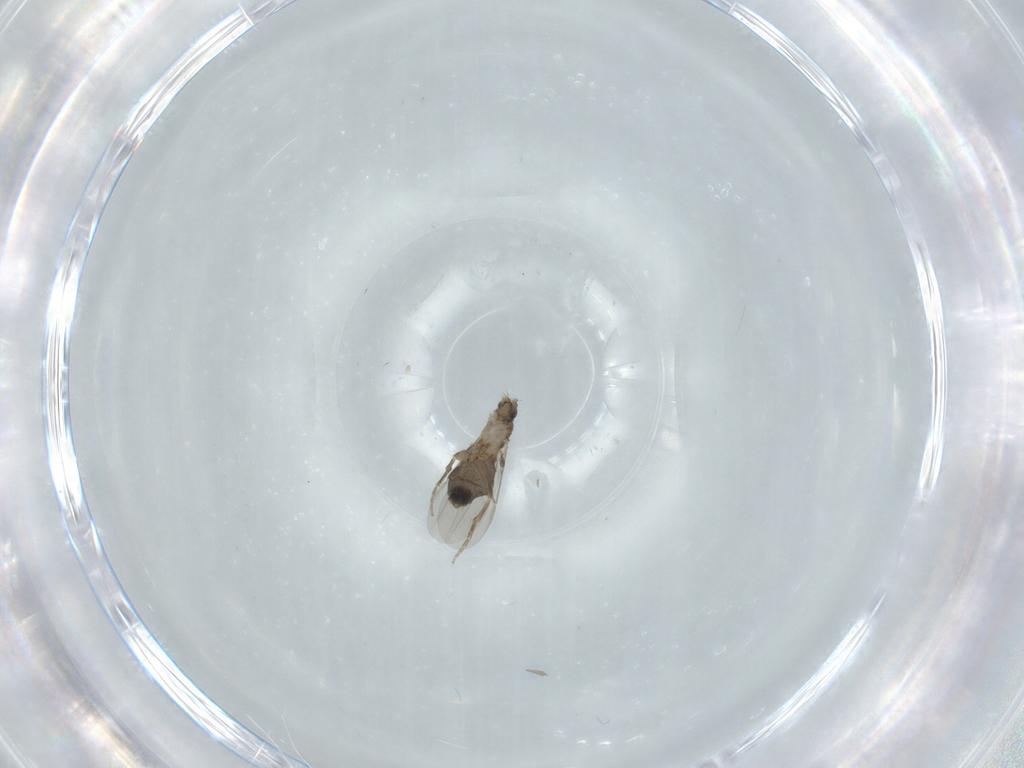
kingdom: Animalia
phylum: Arthropoda
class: Insecta
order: Diptera
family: Phoridae
